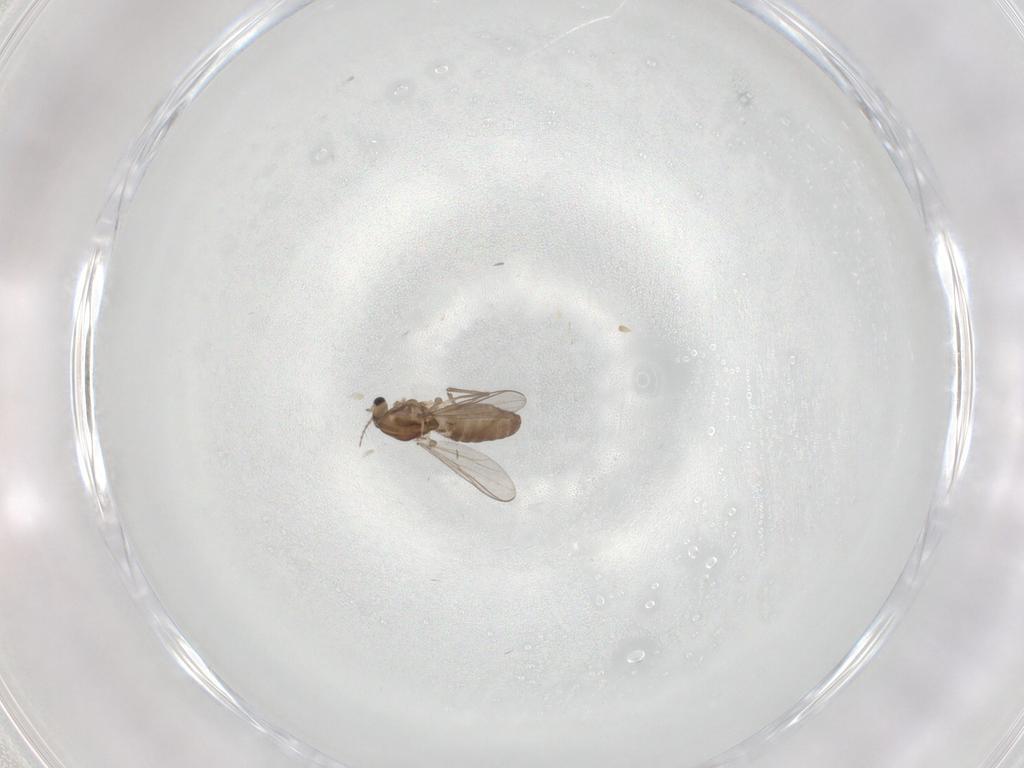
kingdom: Animalia
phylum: Arthropoda
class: Insecta
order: Diptera
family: Chironomidae
